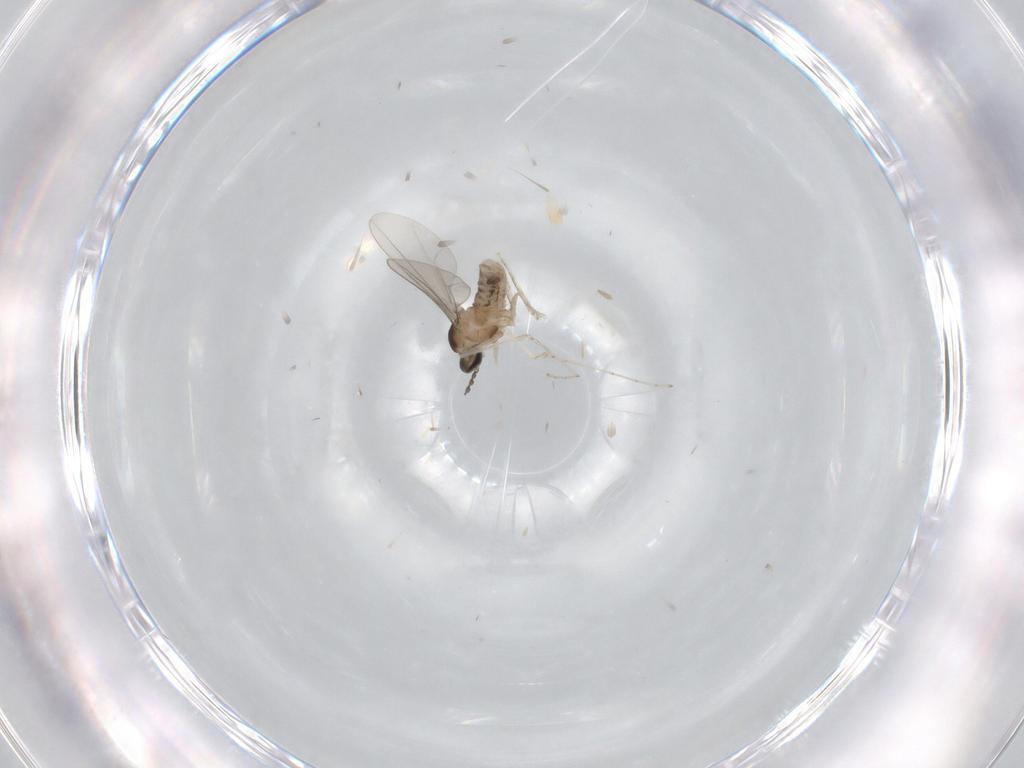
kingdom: Animalia
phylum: Arthropoda
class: Insecta
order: Diptera
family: Cecidomyiidae
